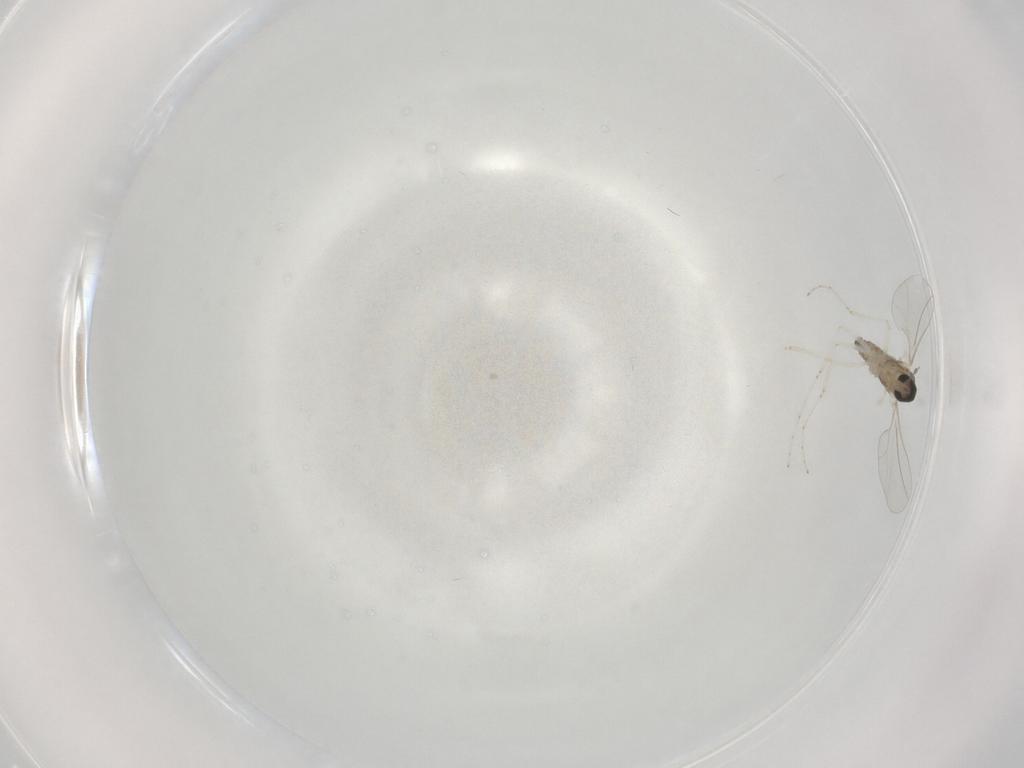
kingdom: Animalia
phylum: Arthropoda
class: Insecta
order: Diptera
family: Cecidomyiidae
